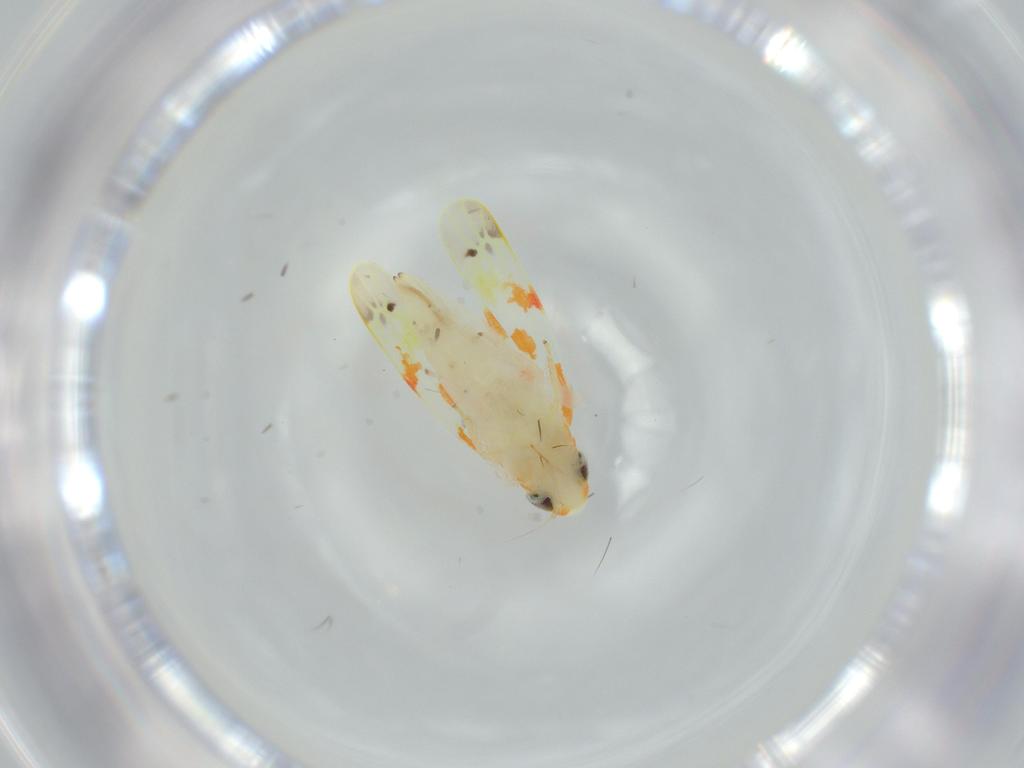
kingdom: Animalia
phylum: Arthropoda
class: Insecta
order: Hemiptera
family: Cicadellidae
